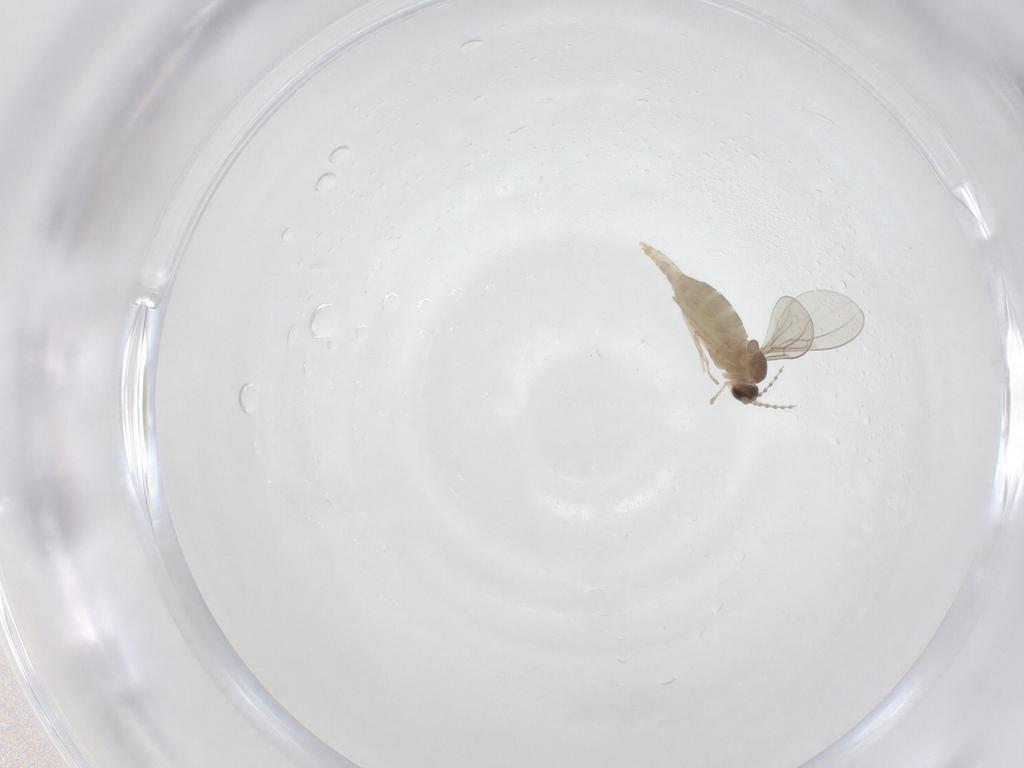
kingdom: Animalia
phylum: Arthropoda
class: Insecta
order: Diptera
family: Cecidomyiidae
